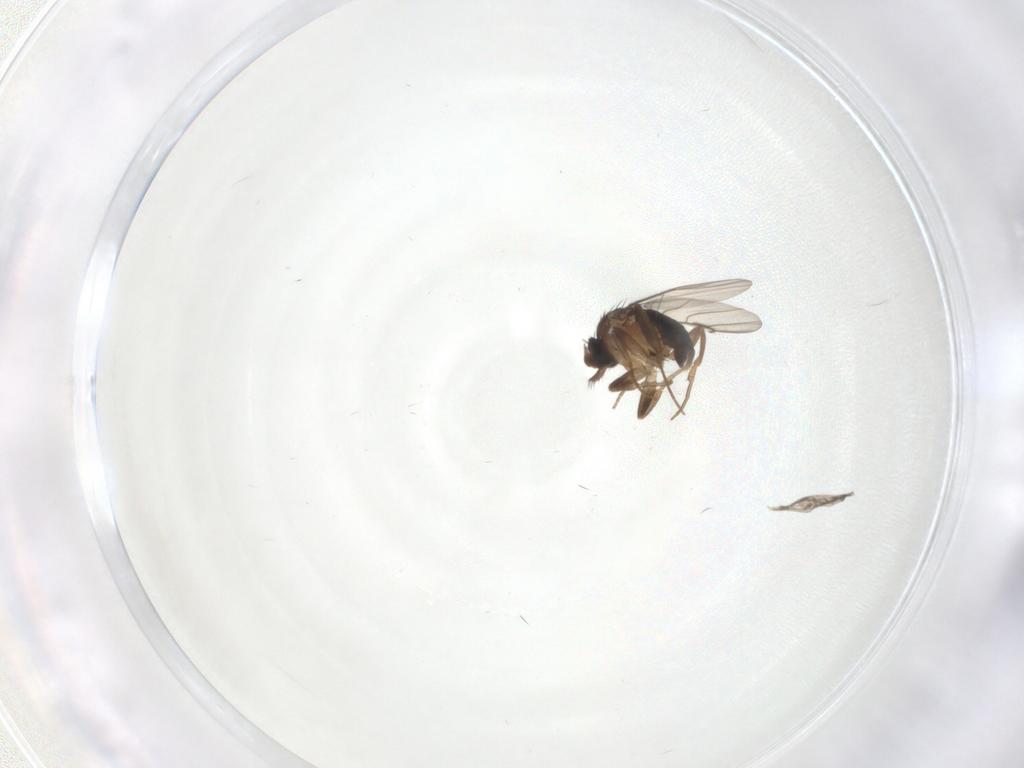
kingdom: Animalia
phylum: Arthropoda
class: Insecta
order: Diptera
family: Phoridae
